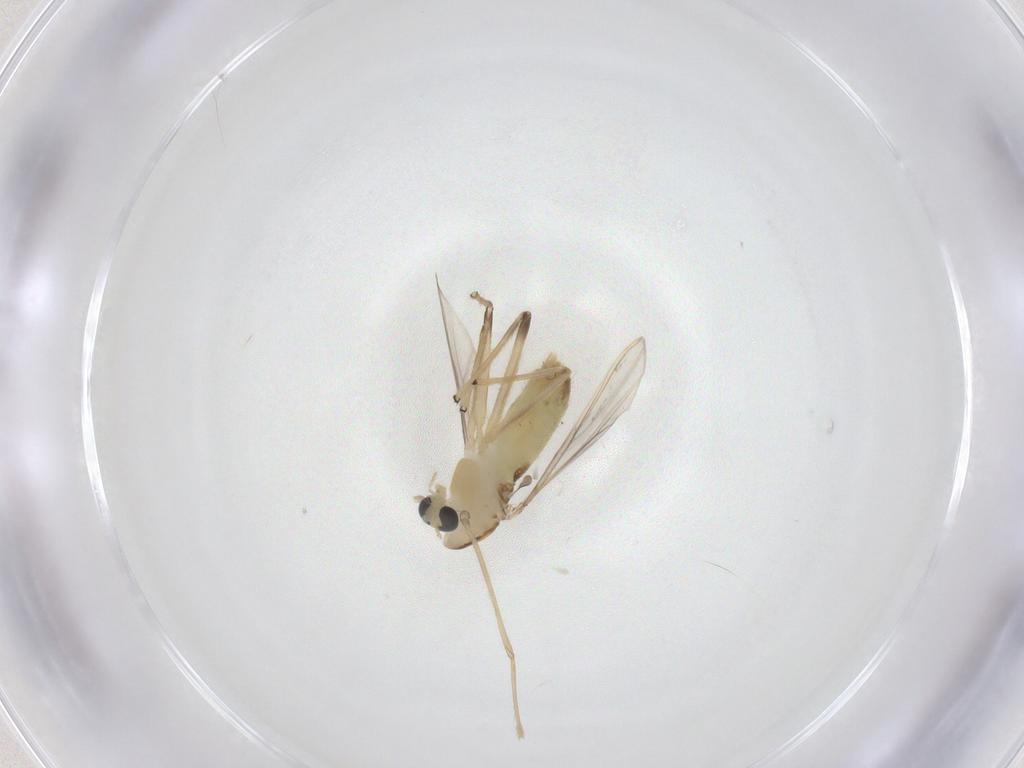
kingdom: Animalia
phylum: Arthropoda
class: Insecta
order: Diptera
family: Chironomidae
